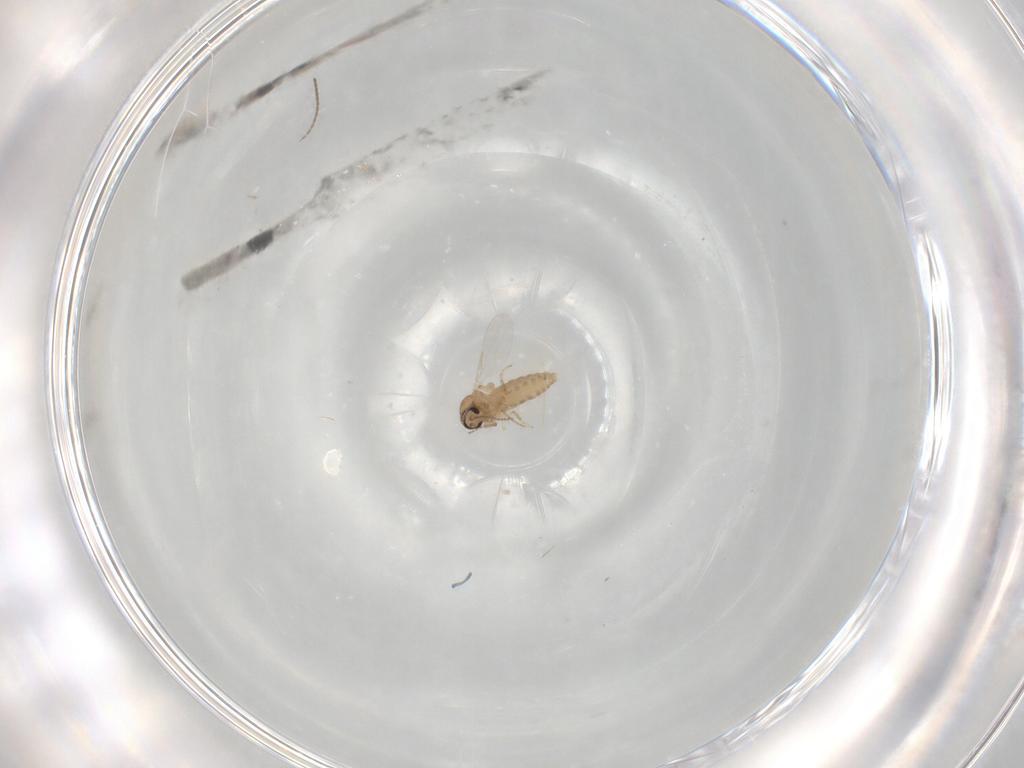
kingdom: Animalia
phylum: Arthropoda
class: Insecta
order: Diptera
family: Ceratopogonidae
